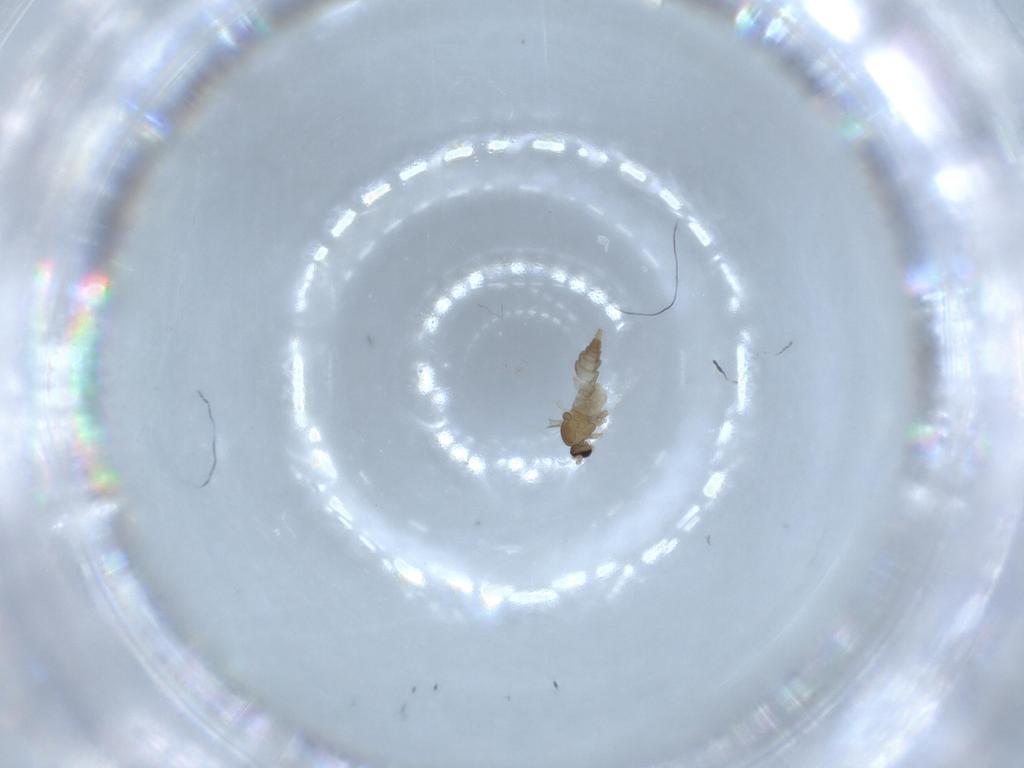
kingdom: Animalia
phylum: Arthropoda
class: Insecta
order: Diptera
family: Cecidomyiidae
